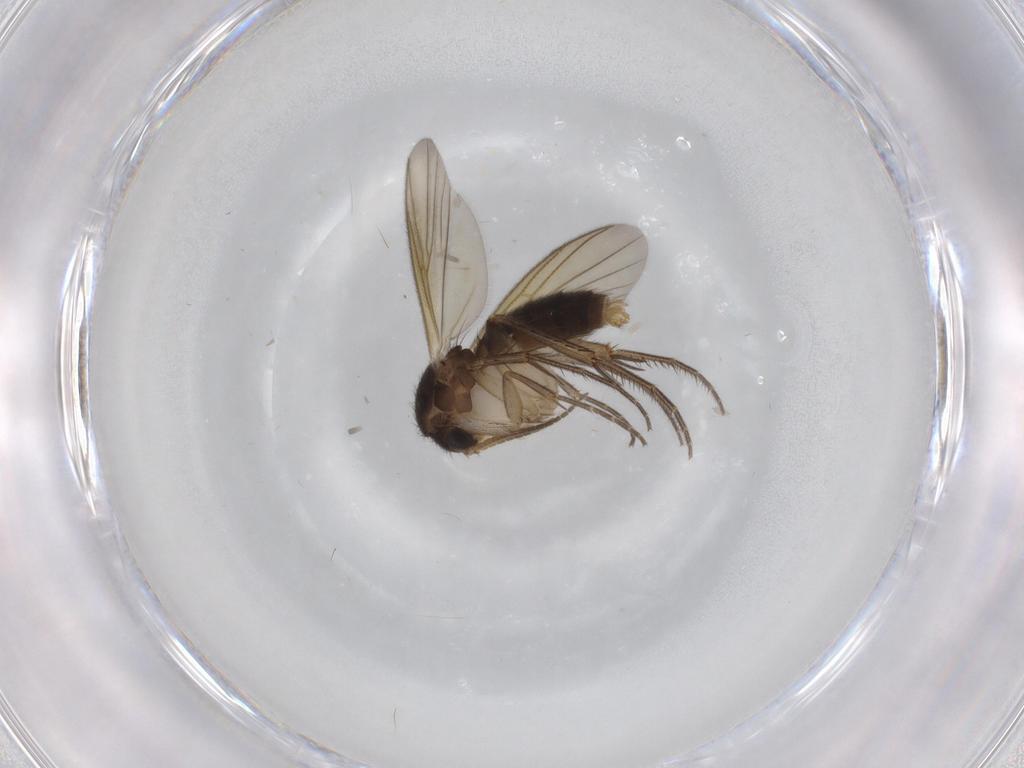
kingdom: Animalia
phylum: Arthropoda
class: Insecta
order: Diptera
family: Mycetophilidae
